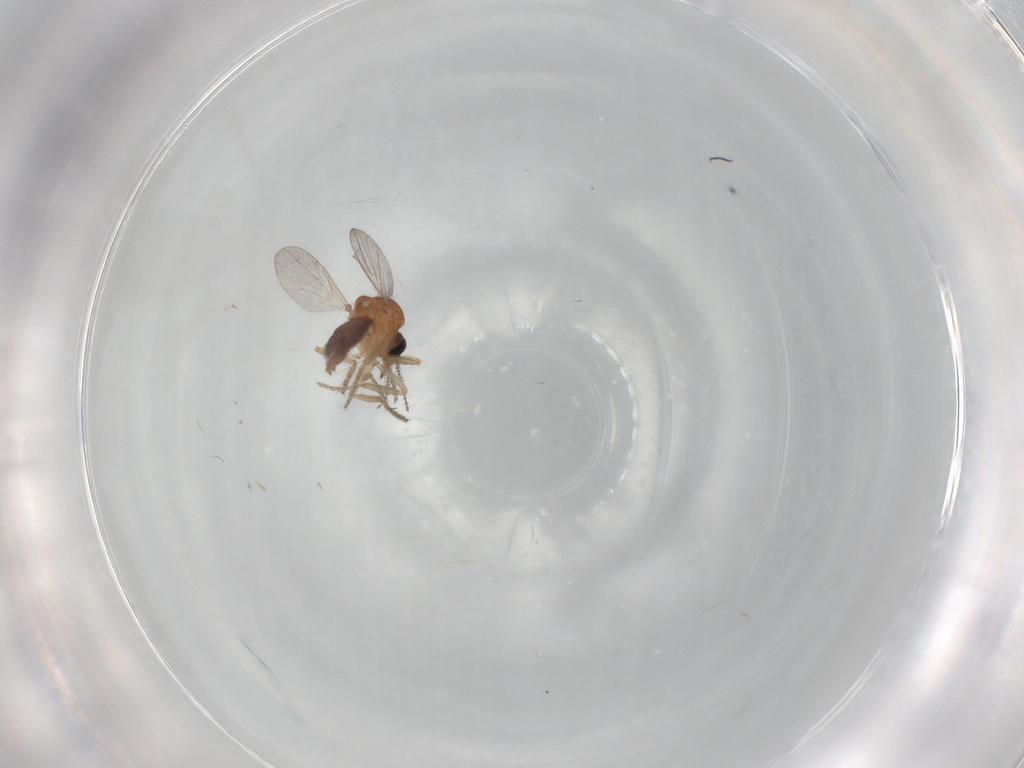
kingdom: Animalia
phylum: Arthropoda
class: Insecta
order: Diptera
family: Ceratopogonidae
